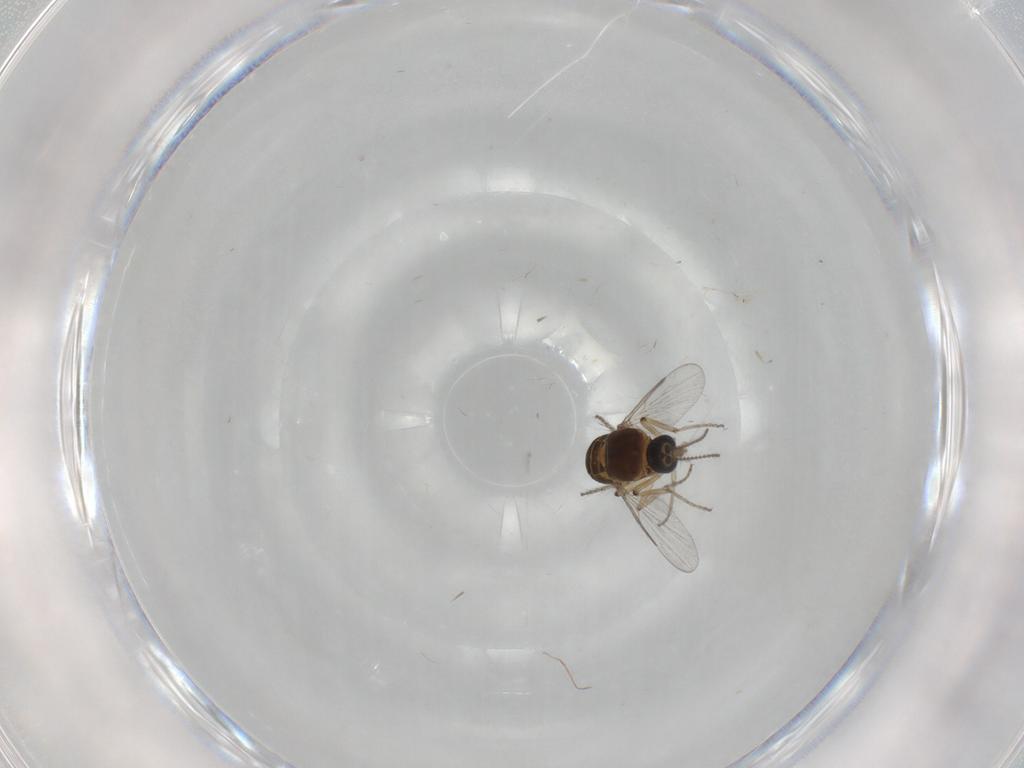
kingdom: Animalia
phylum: Arthropoda
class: Insecta
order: Diptera
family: Ceratopogonidae
